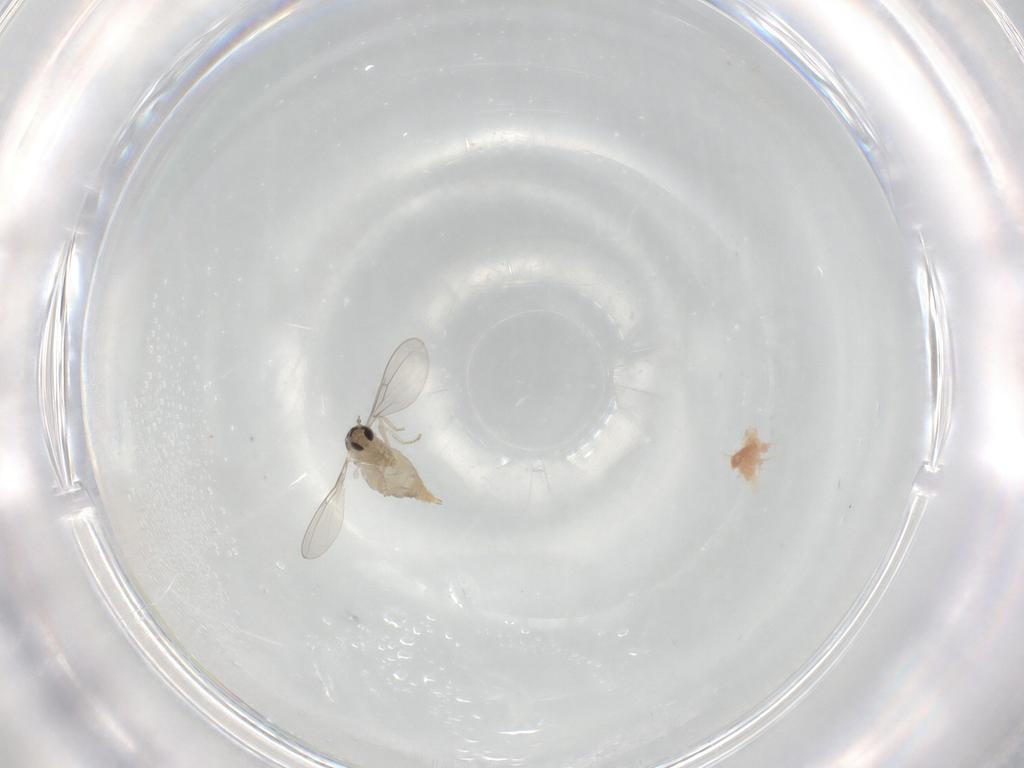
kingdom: Animalia
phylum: Arthropoda
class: Insecta
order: Diptera
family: Cecidomyiidae
